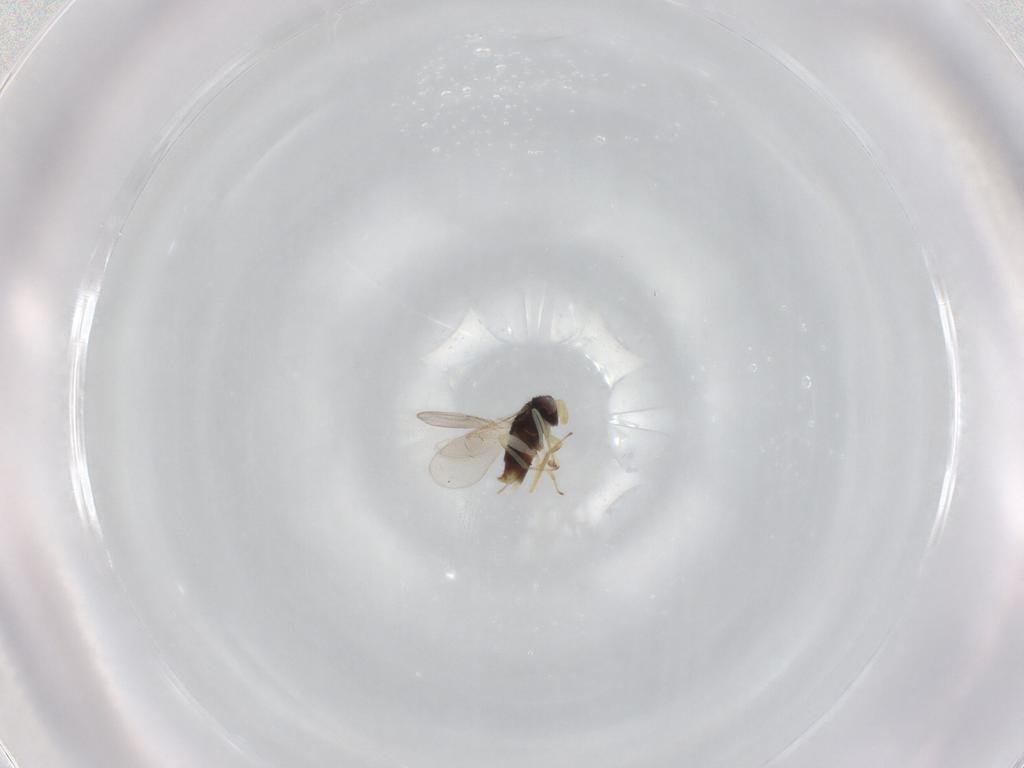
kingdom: Animalia
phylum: Arthropoda
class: Insecta
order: Hymenoptera
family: Aphelinidae
